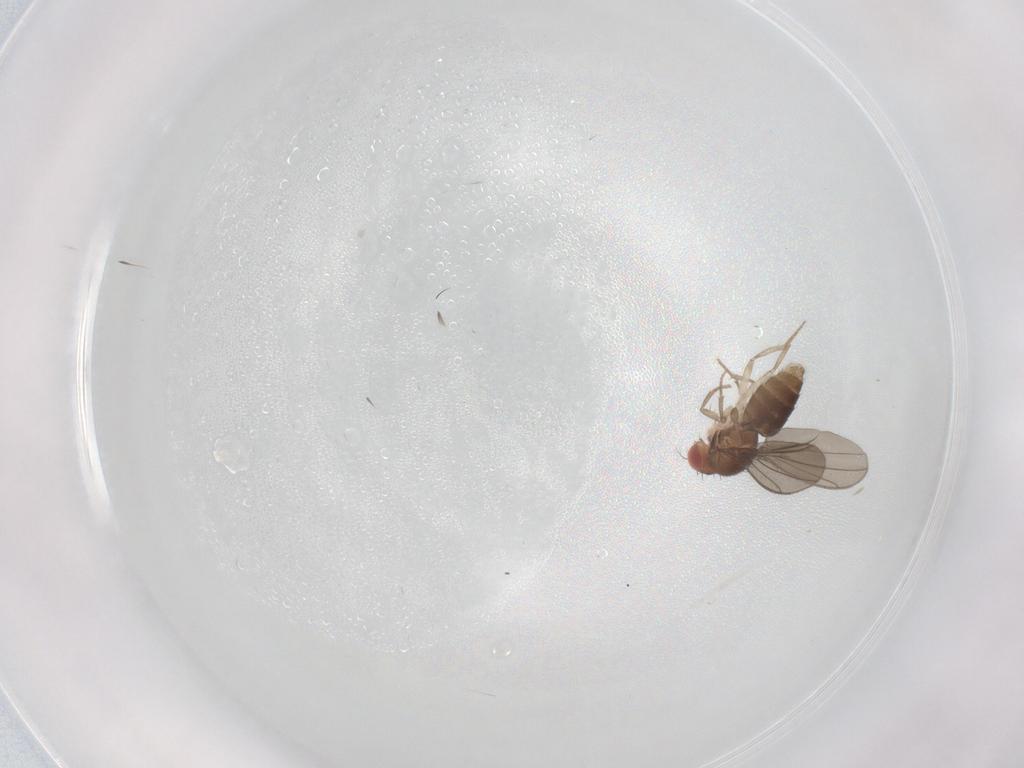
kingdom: Animalia
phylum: Arthropoda
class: Insecta
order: Diptera
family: Drosophilidae
